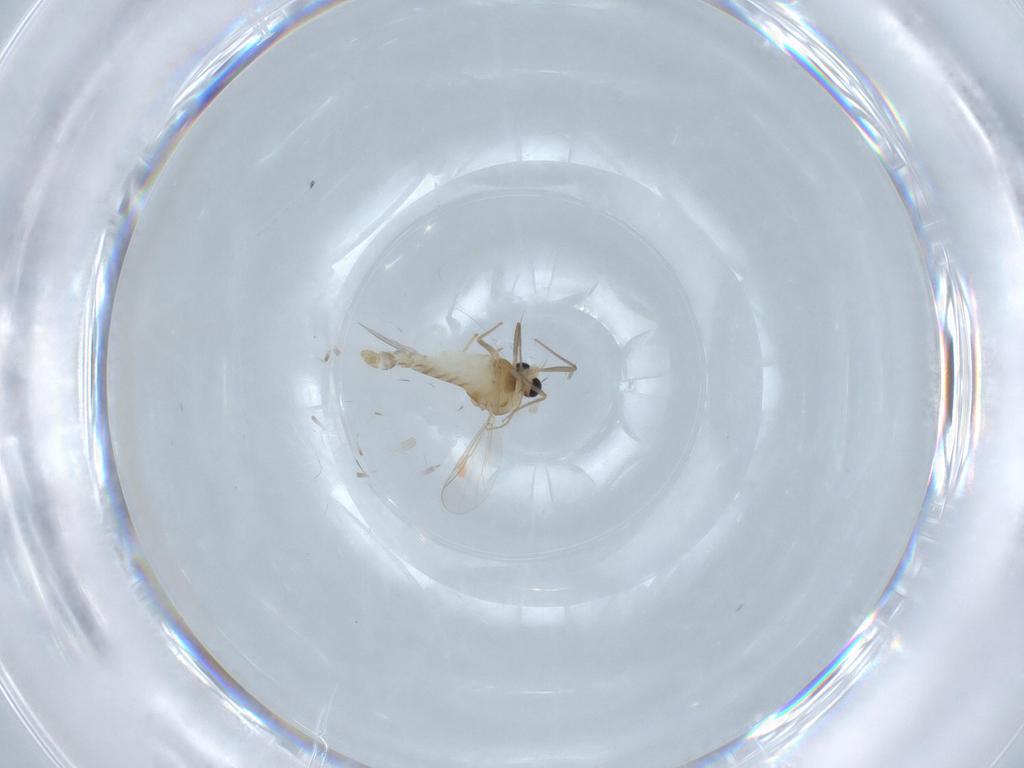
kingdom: Animalia
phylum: Arthropoda
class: Insecta
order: Diptera
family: Chironomidae
